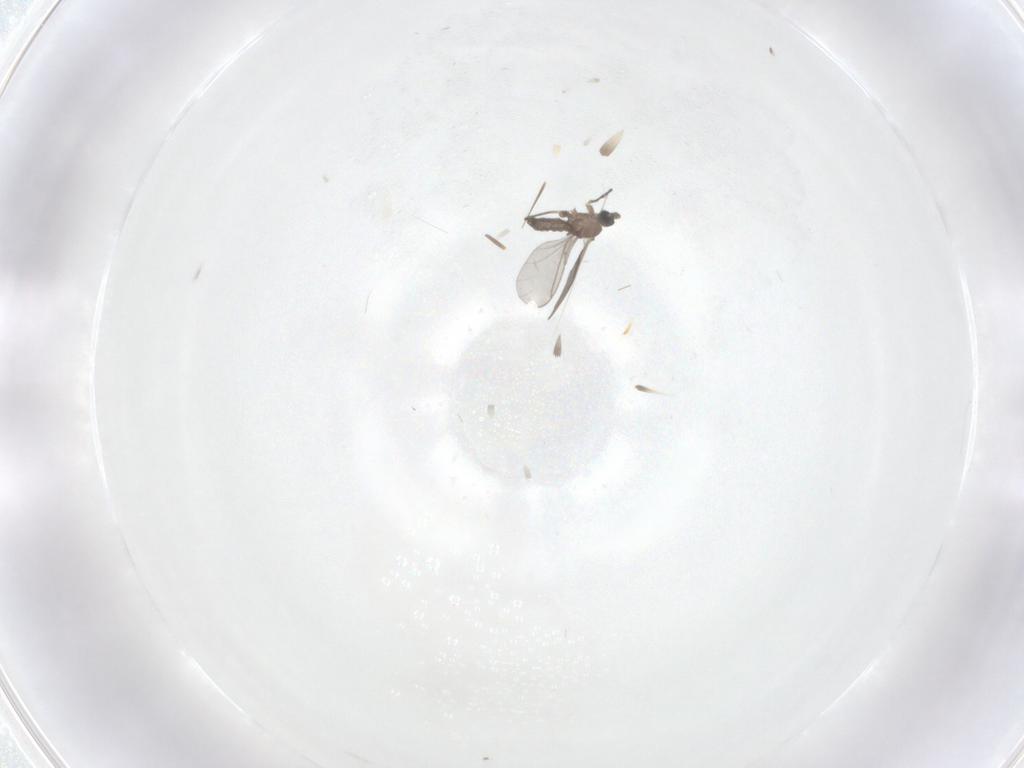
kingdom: Animalia
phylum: Arthropoda
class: Insecta
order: Diptera
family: Sciaridae
